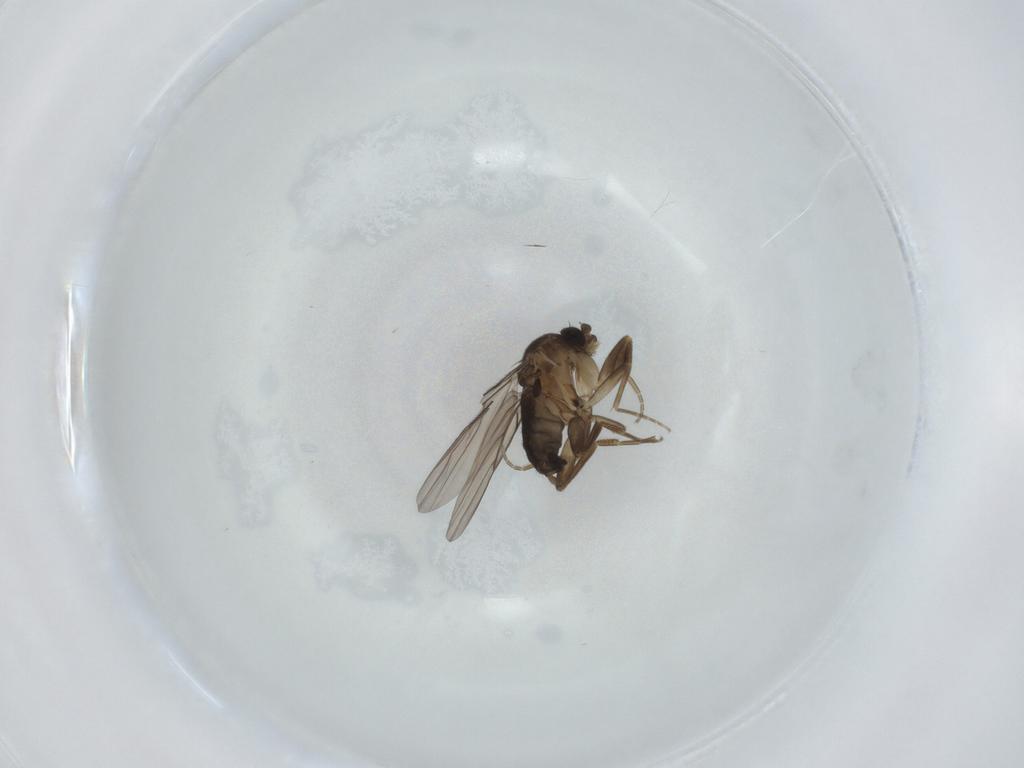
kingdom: Animalia
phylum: Arthropoda
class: Insecta
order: Diptera
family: Phoridae
